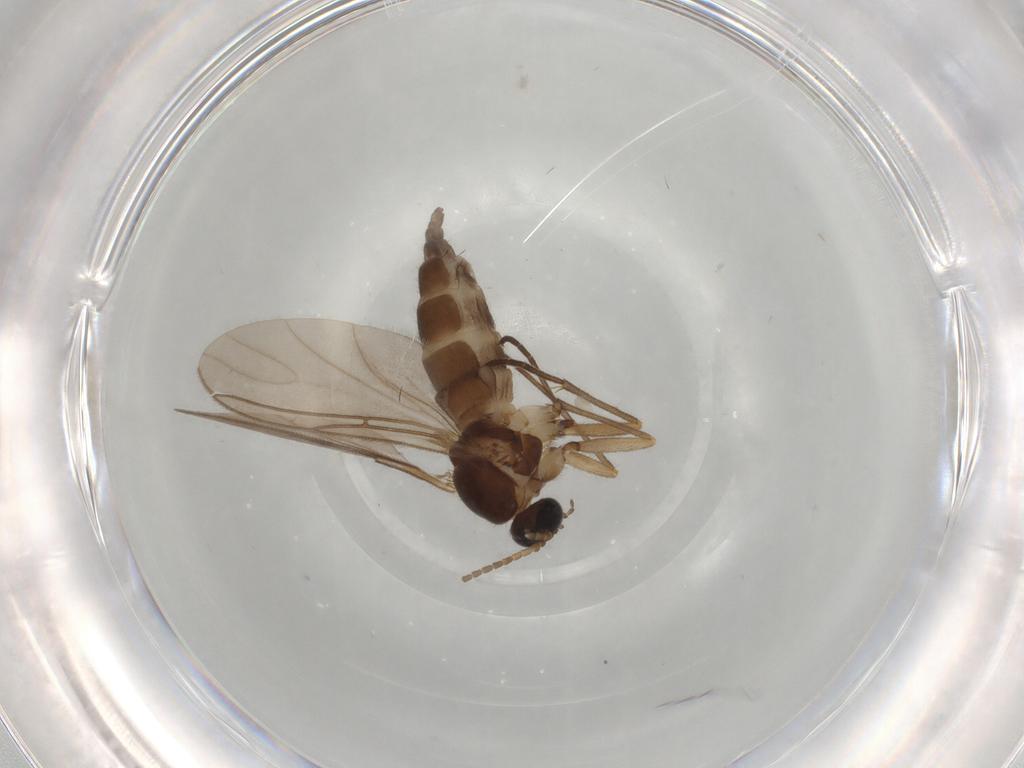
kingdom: Animalia
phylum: Arthropoda
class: Insecta
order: Diptera
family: Sciaridae
